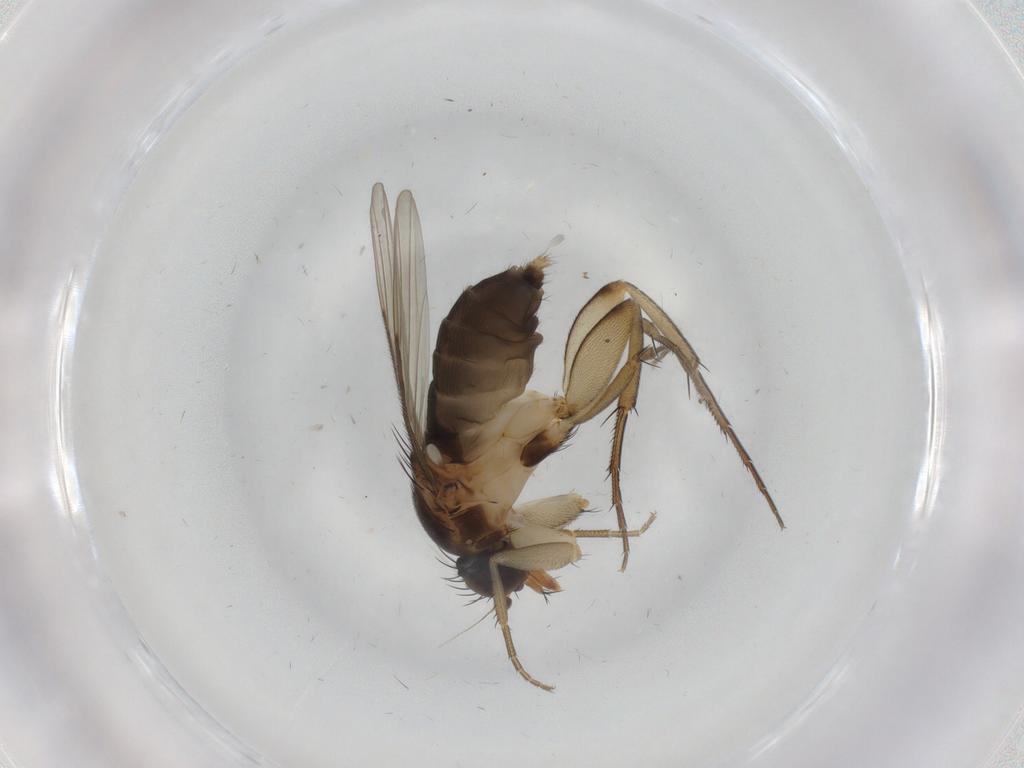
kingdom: Animalia
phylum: Arthropoda
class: Insecta
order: Diptera
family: Phoridae
